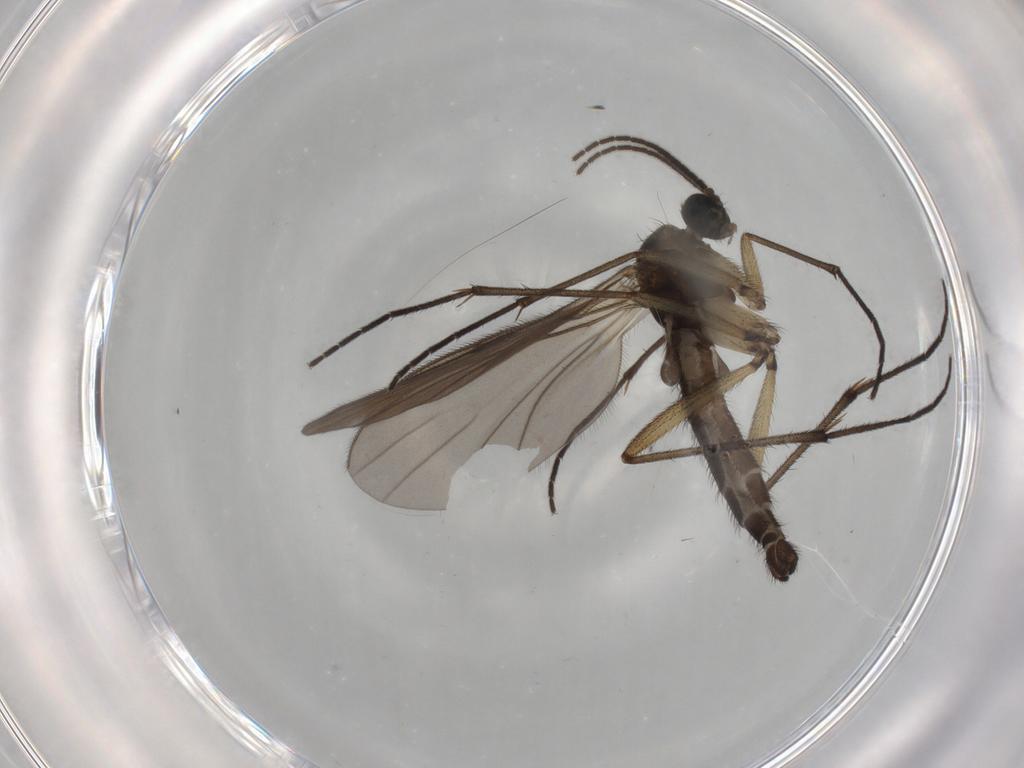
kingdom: Animalia
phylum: Arthropoda
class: Insecta
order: Diptera
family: Sciaridae
